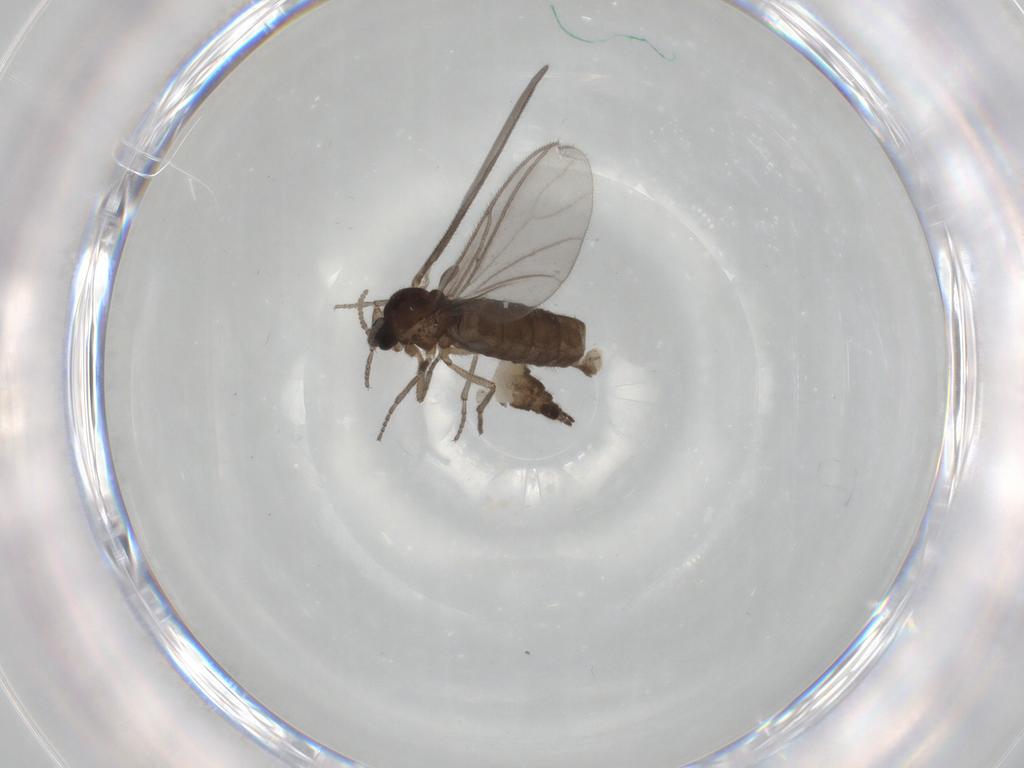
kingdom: Animalia
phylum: Arthropoda
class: Insecta
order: Diptera
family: Sciaridae
